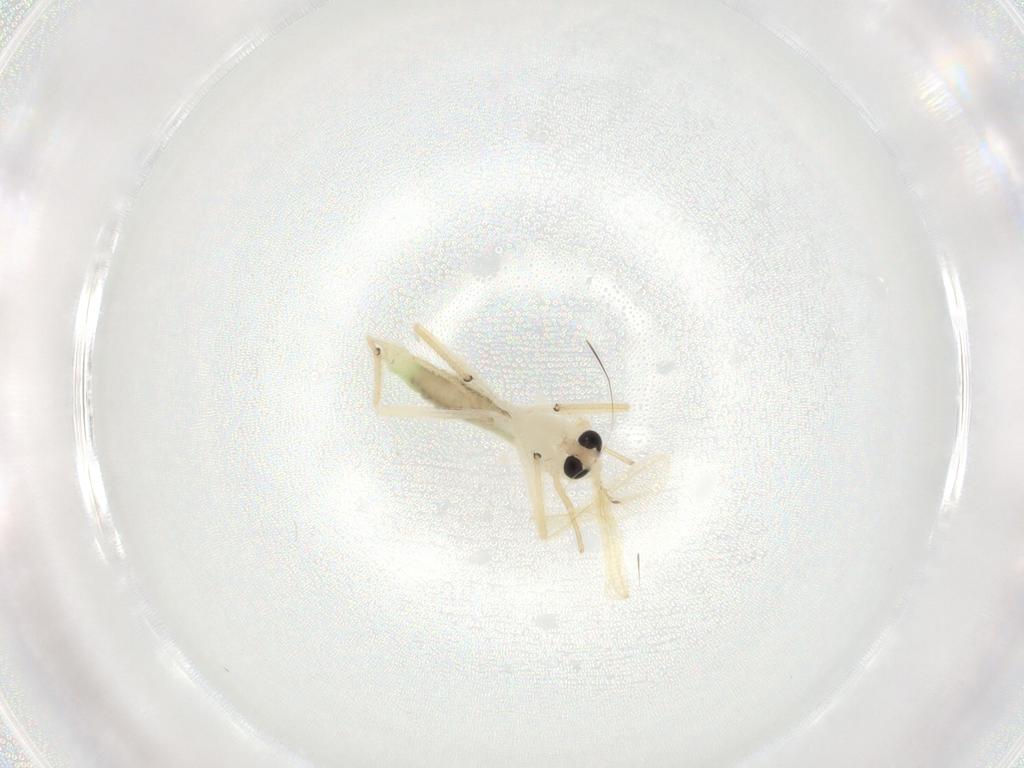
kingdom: Animalia
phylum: Arthropoda
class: Insecta
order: Diptera
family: Chironomidae
